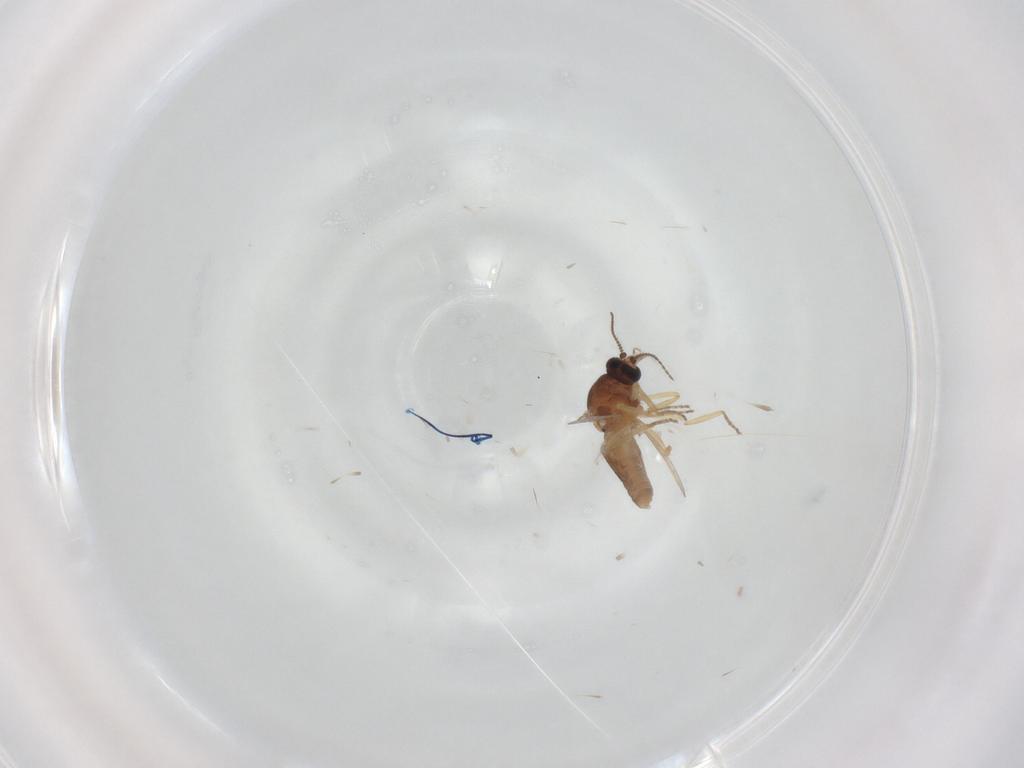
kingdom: Animalia
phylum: Arthropoda
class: Insecta
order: Diptera
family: Ceratopogonidae
